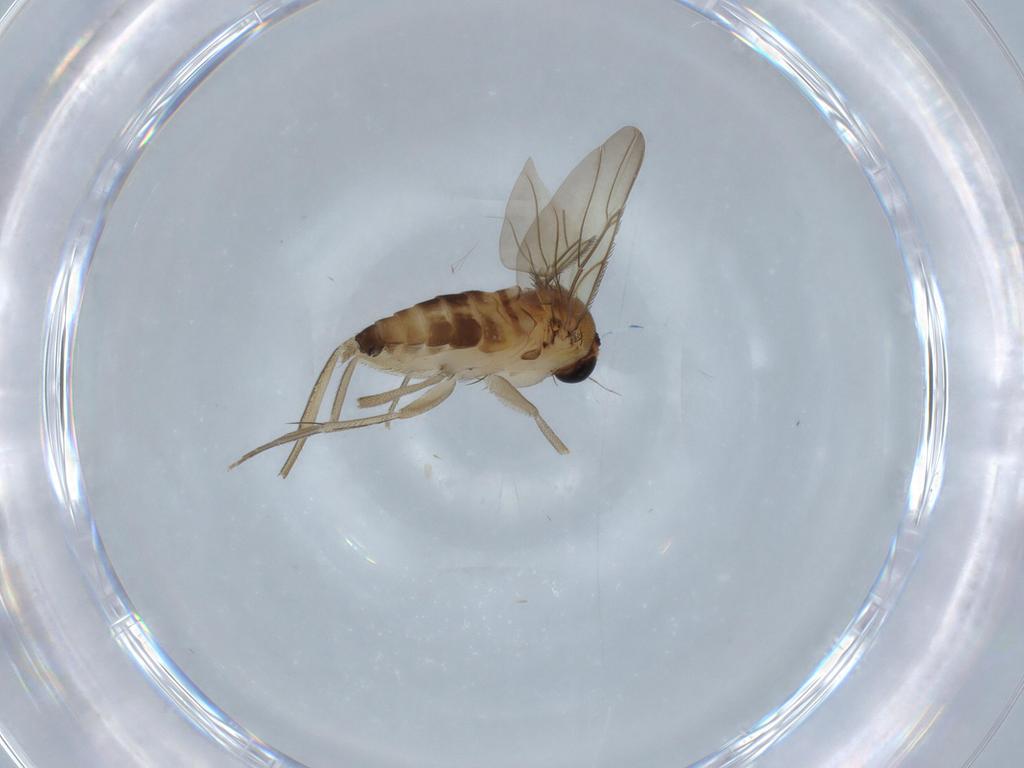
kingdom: Animalia
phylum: Arthropoda
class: Insecta
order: Diptera
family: Phoridae
